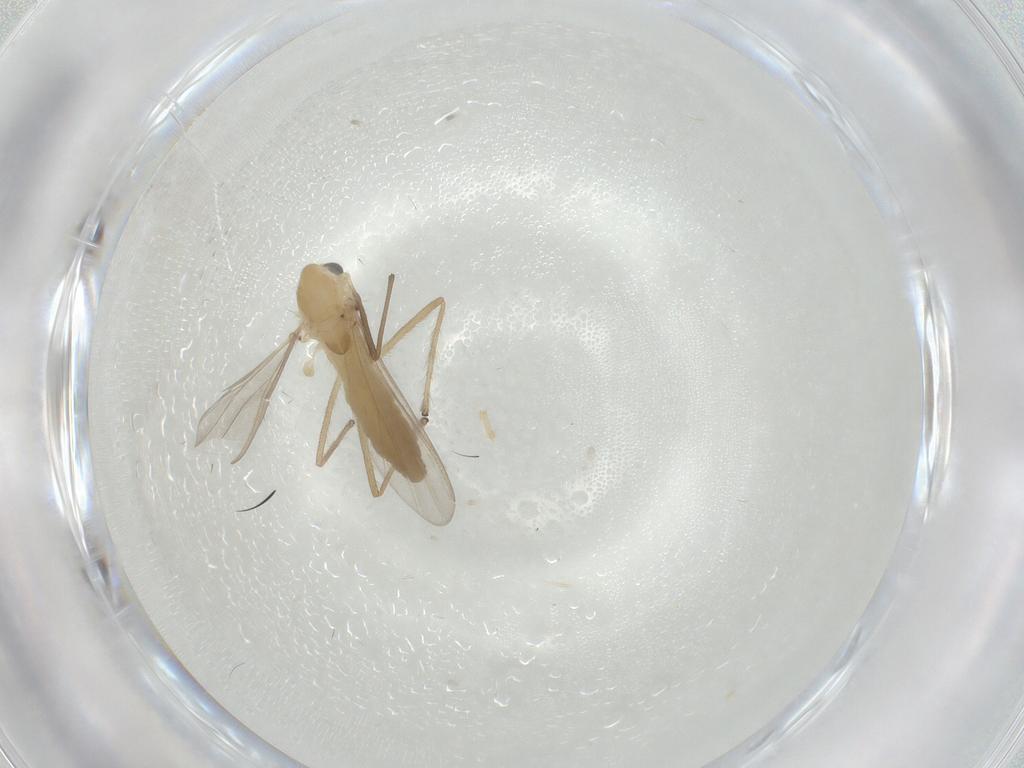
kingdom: Animalia
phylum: Arthropoda
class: Insecta
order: Diptera
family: Chironomidae
